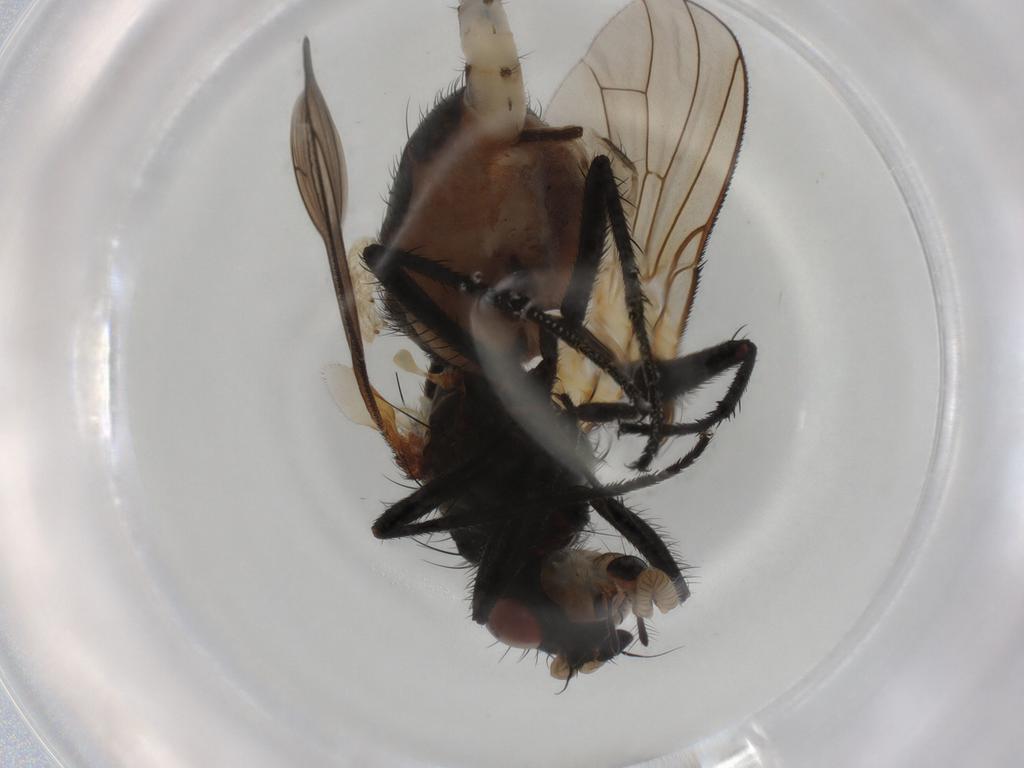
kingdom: Animalia
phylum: Arthropoda
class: Insecta
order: Diptera
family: Anthomyiidae
